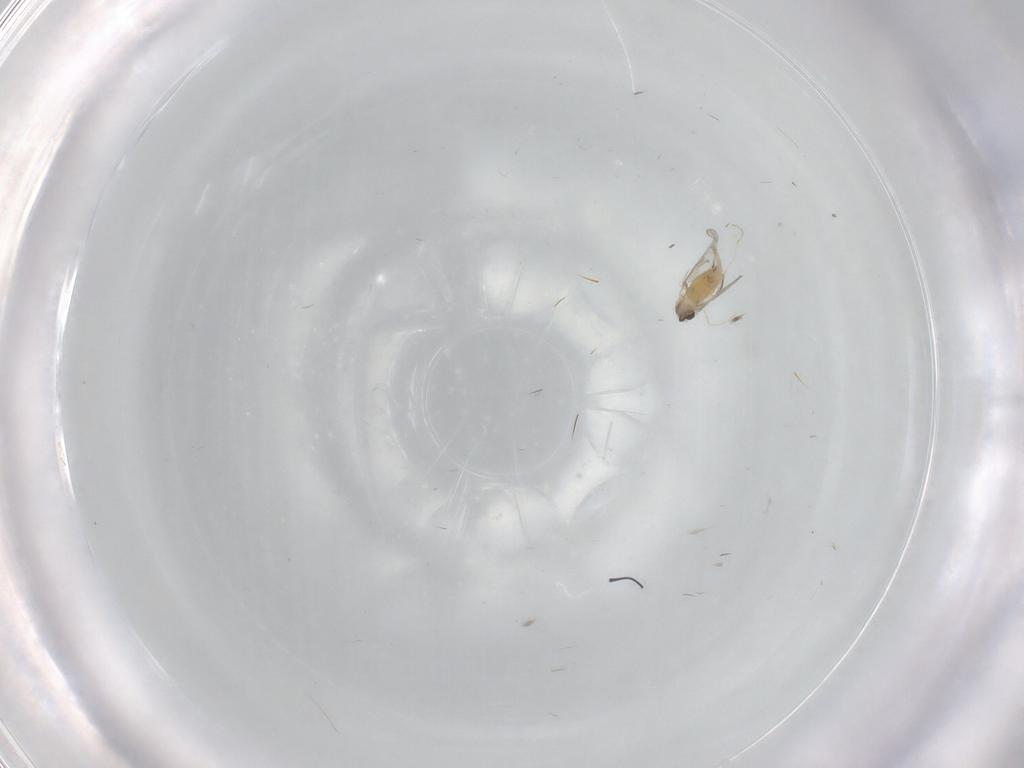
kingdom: Animalia
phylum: Arthropoda
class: Insecta
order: Diptera
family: Cecidomyiidae
